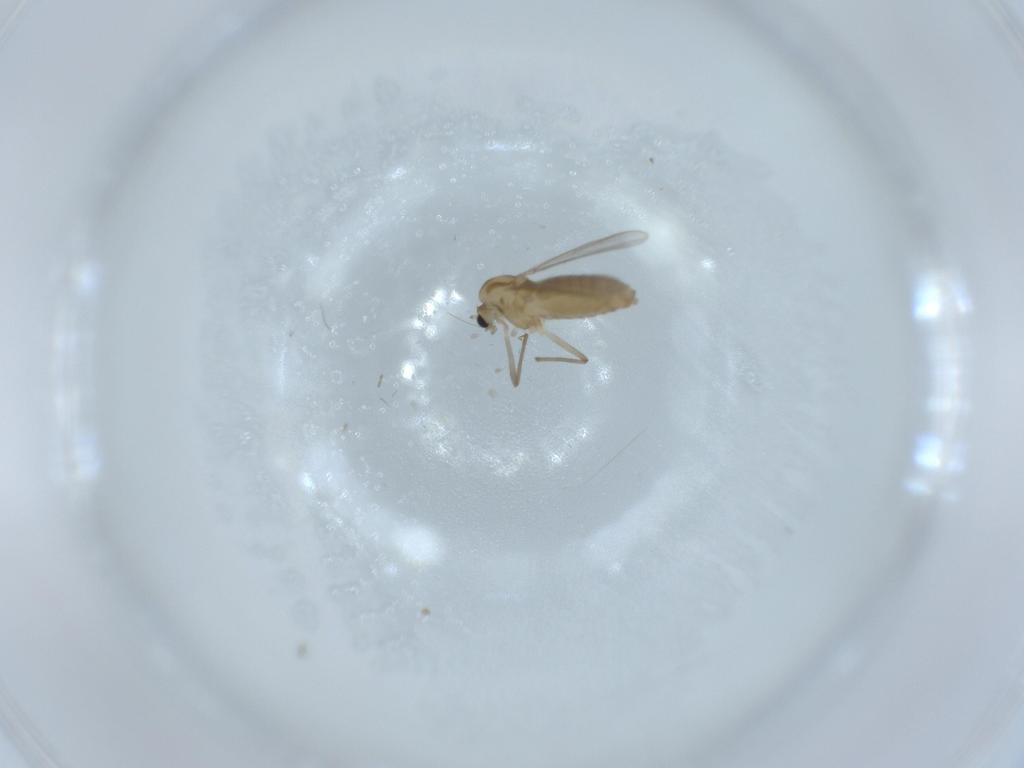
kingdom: Animalia
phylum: Arthropoda
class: Insecta
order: Diptera
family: Chironomidae
